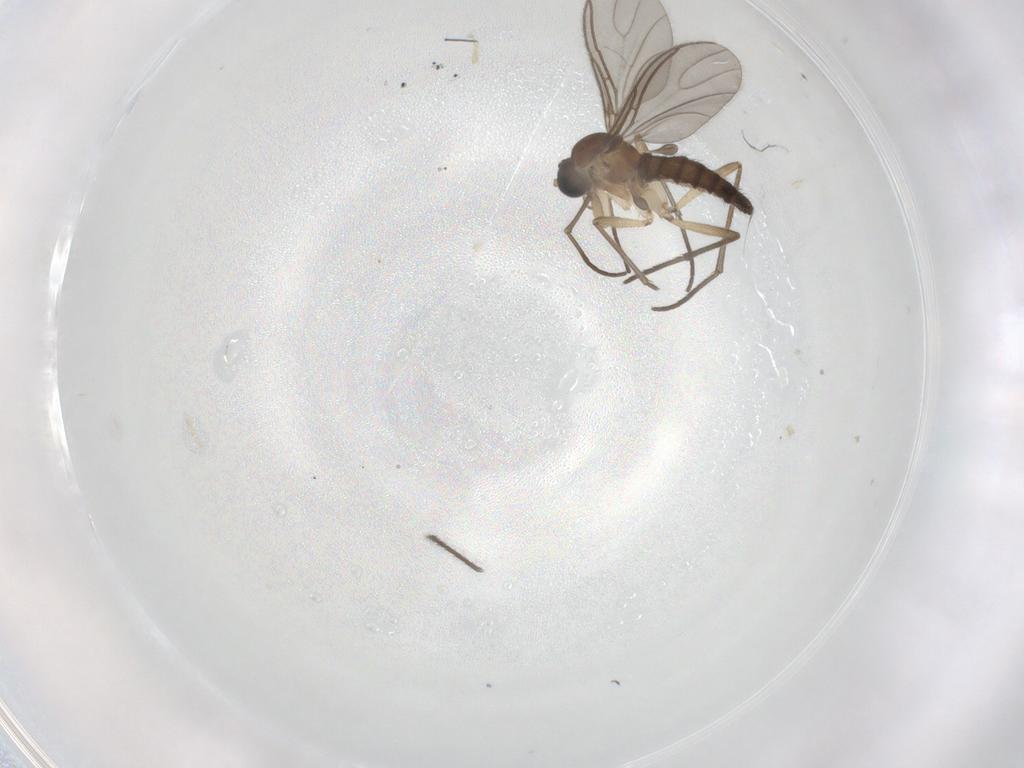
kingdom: Animalia
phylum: Arthropoda
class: Insecta
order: Diptera
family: Sciaridae
